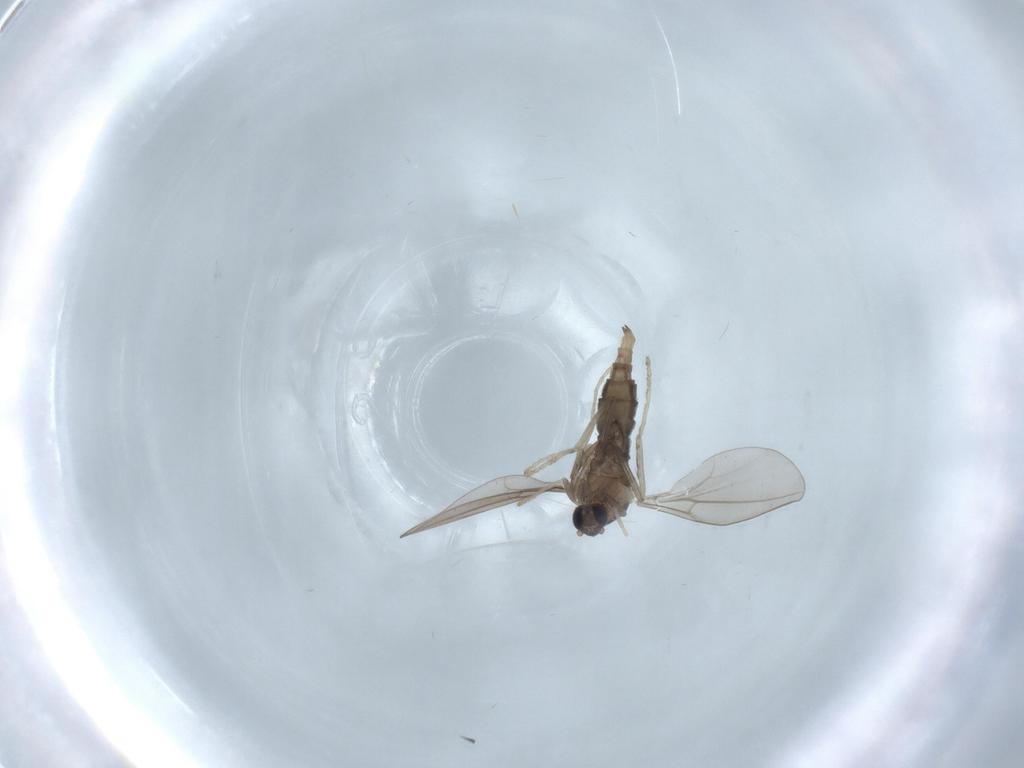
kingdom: Animalia
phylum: Arthropoda
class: Insecta
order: Diptera
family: Cecidomyiidae
